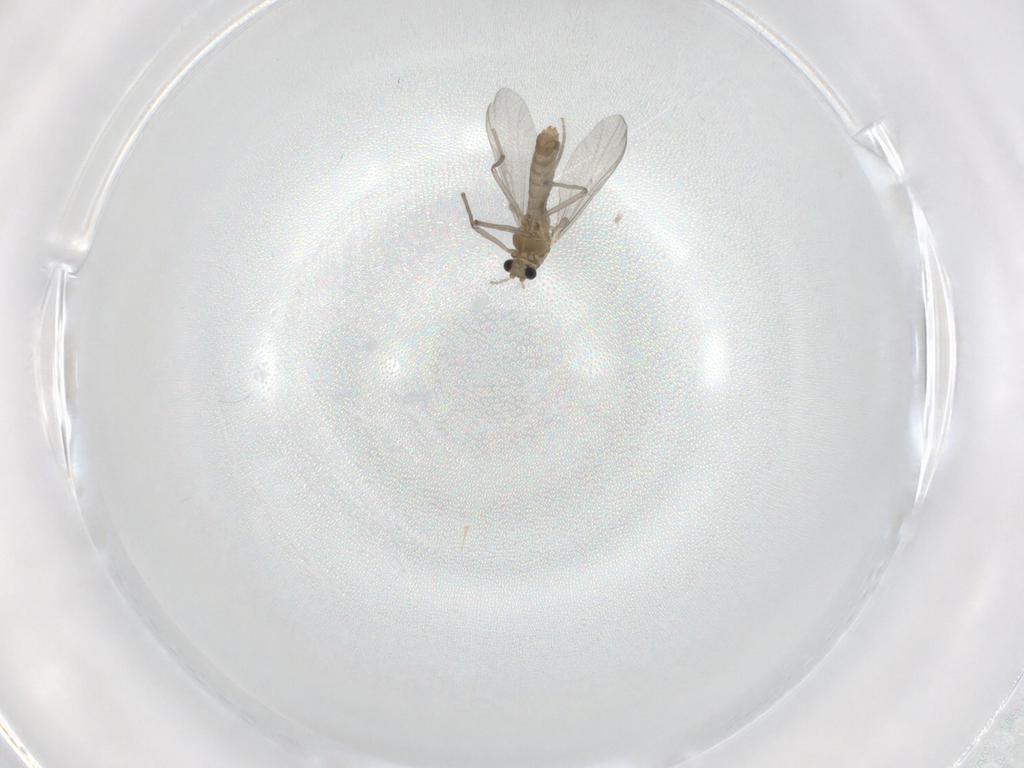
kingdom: Animalia
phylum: Arthropoda
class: Insecta
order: Diptera
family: Chironomidae
